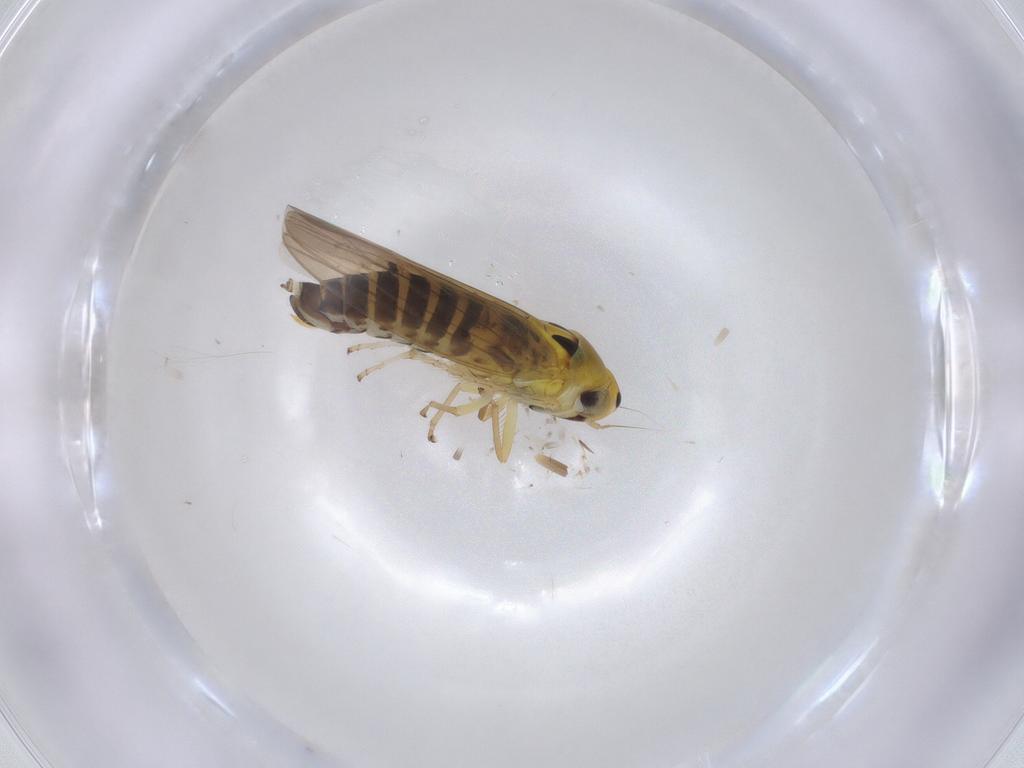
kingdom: Animalia
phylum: Arthropoda
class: Insecta
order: Hemiptera
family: Cicadellidae
